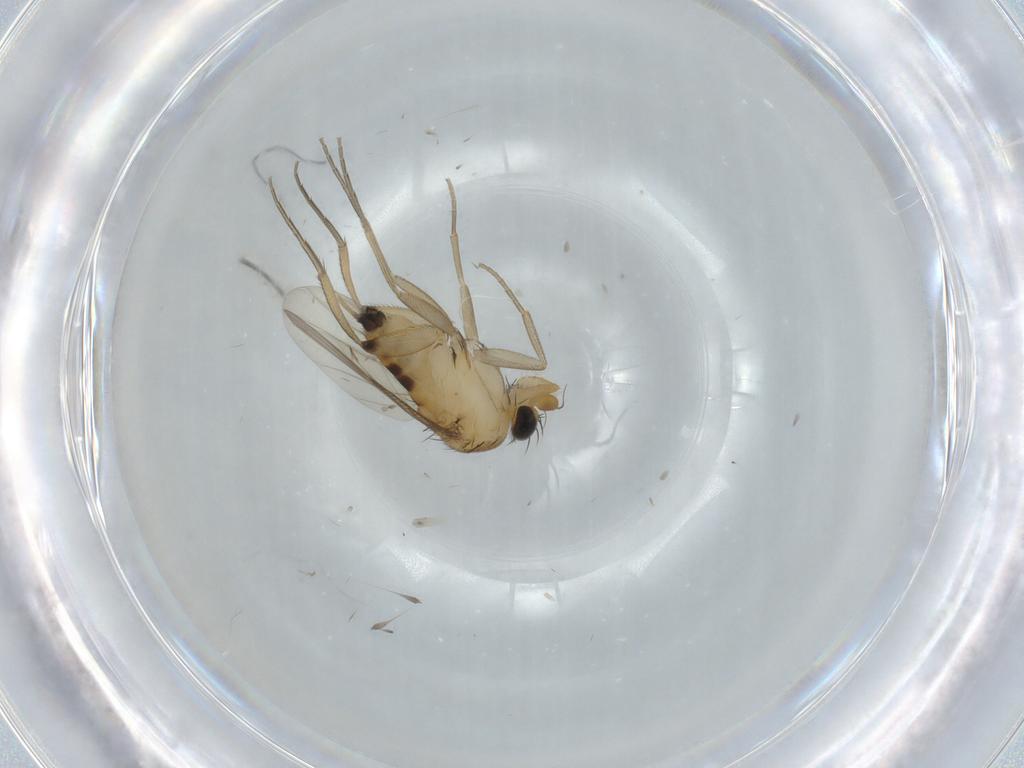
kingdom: Animalia
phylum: Arthropoda
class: Insecta
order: Diptera
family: Phoridae
